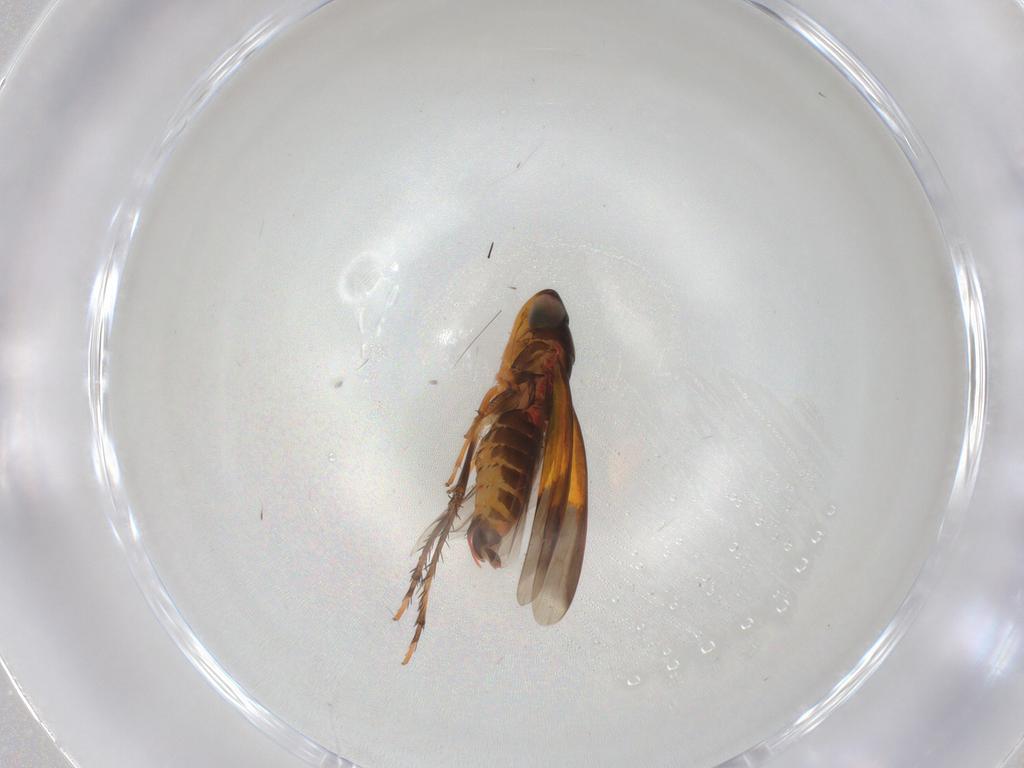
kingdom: Animalia
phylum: Arthropoda
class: Insecta
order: Hemiptera
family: Cicadellidae
